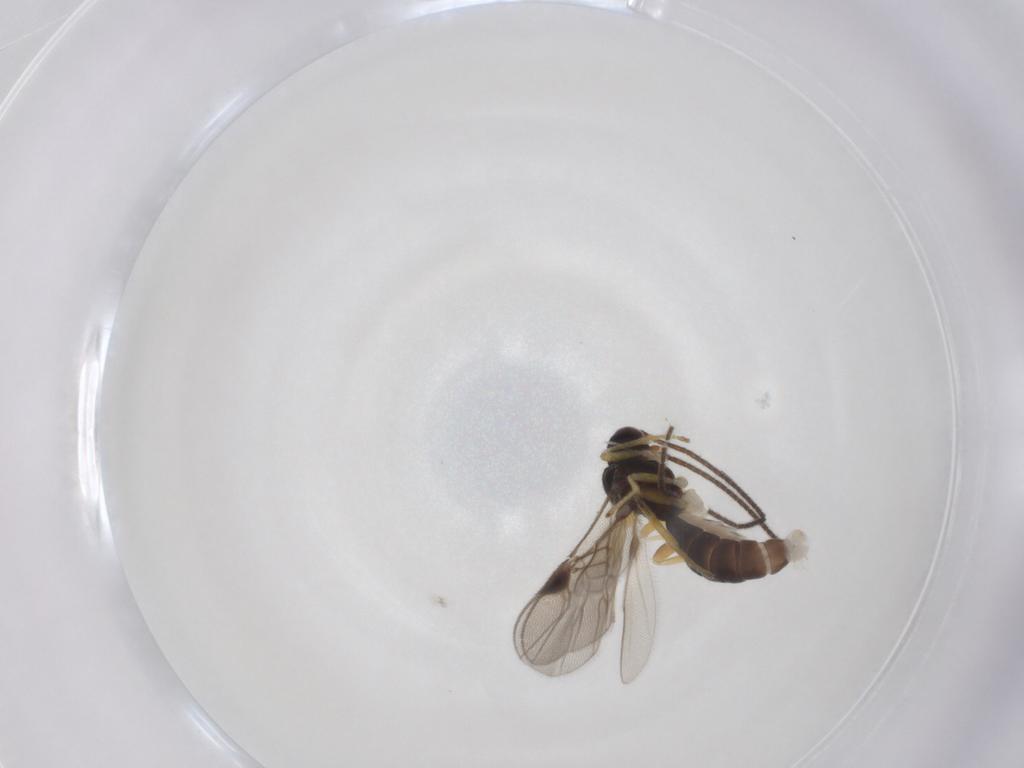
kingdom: Animalia
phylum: Arthropoda
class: Insecta
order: Hymenoptera
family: Braconidae
